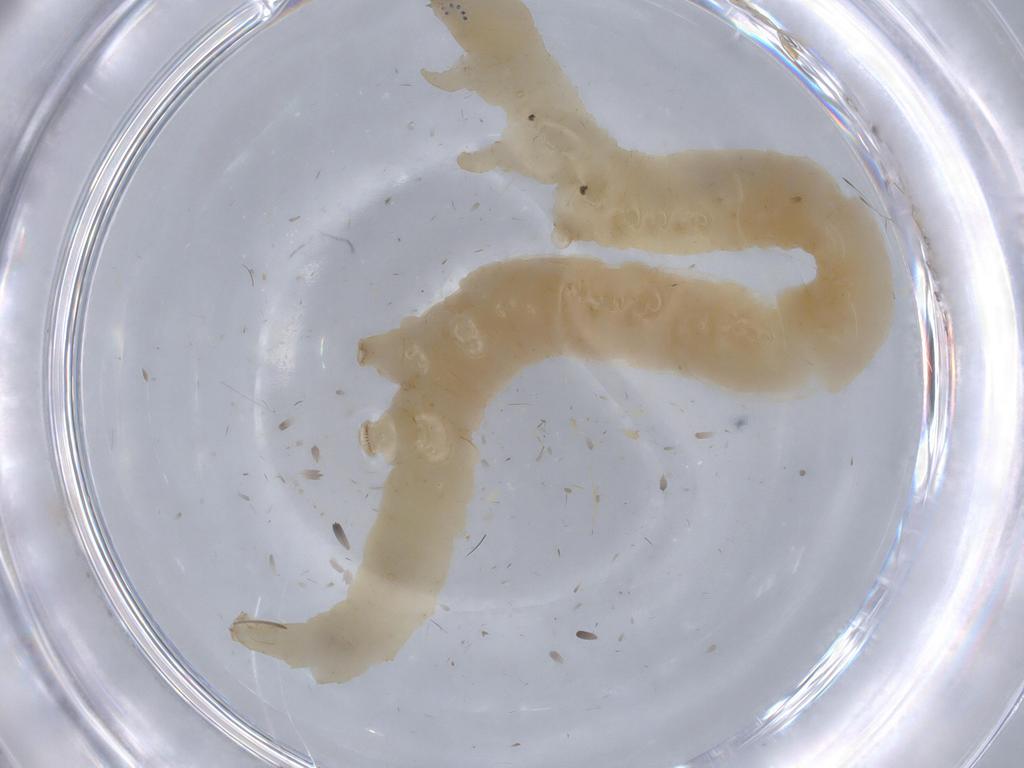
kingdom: Animalia
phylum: Arthropoda
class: Insecta
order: Lepidoptera
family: Erebidae
